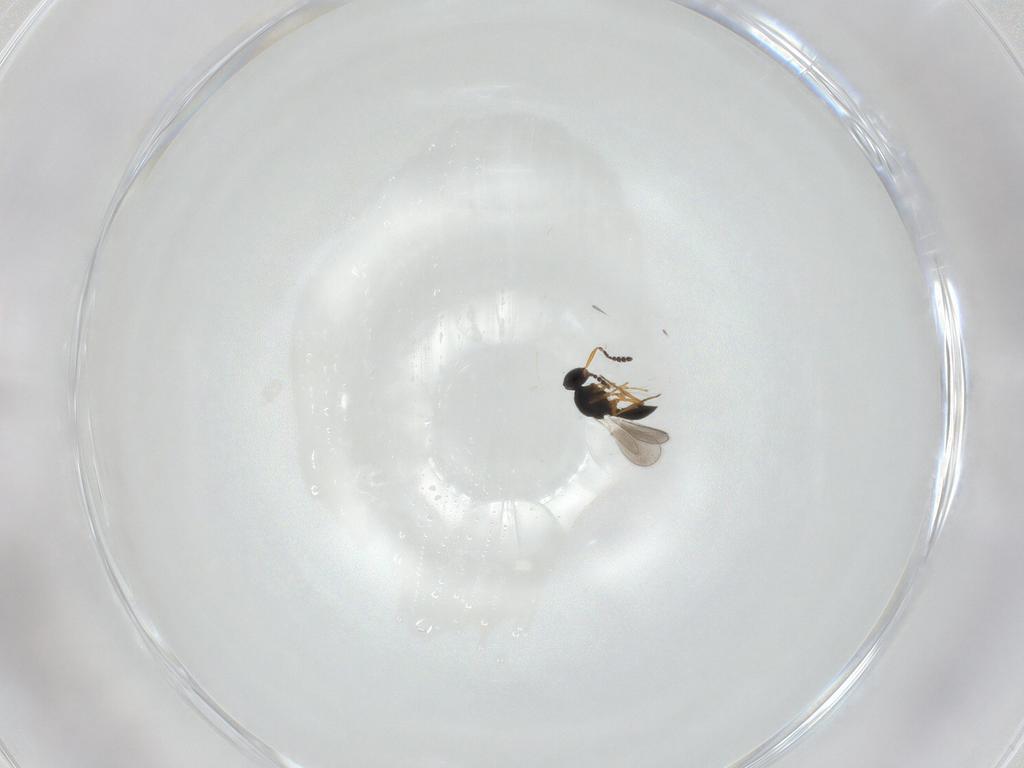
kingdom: Animalia
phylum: Arthropoda
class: Insecta
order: Hymenoptera
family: Platygastridae
